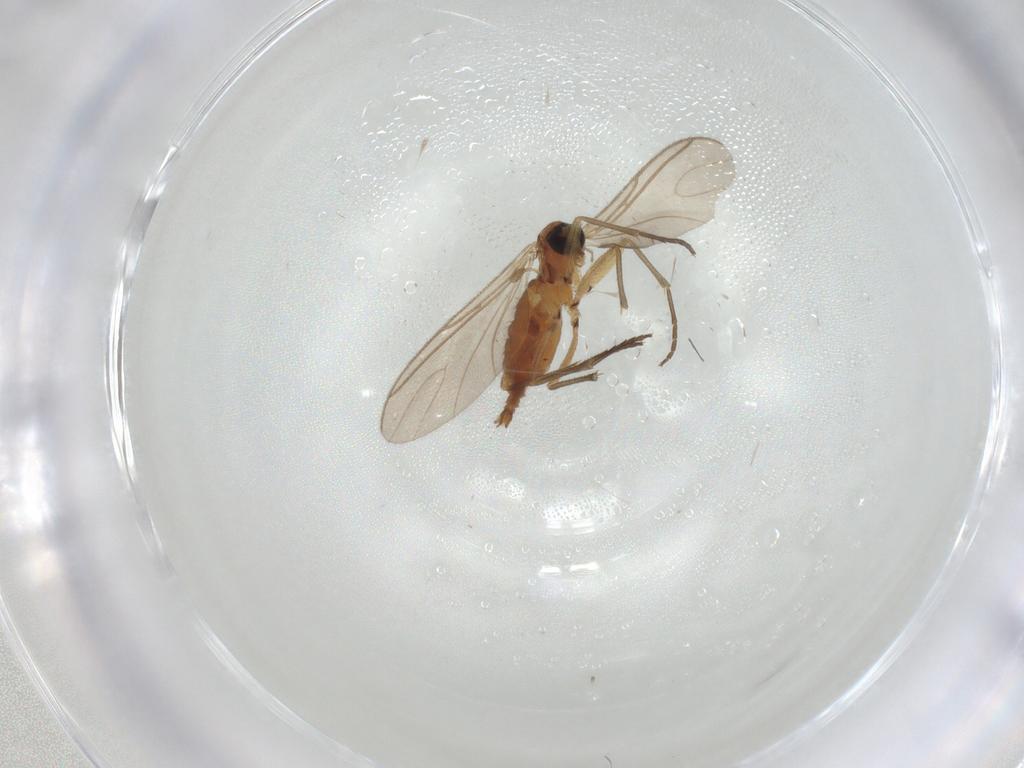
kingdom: Animalia
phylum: Arthropoda
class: Insecta
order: Diptera
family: Sciaridae
